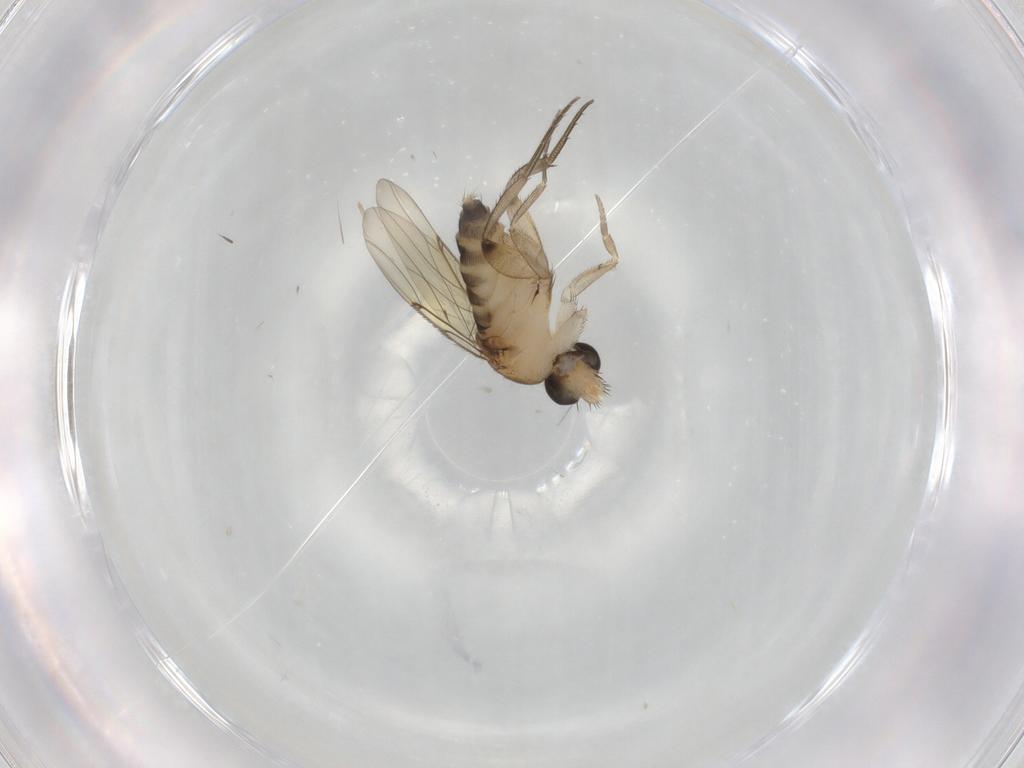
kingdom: Animalia
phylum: Arthropoda
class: Insecta
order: Diptera
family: Phoridae
